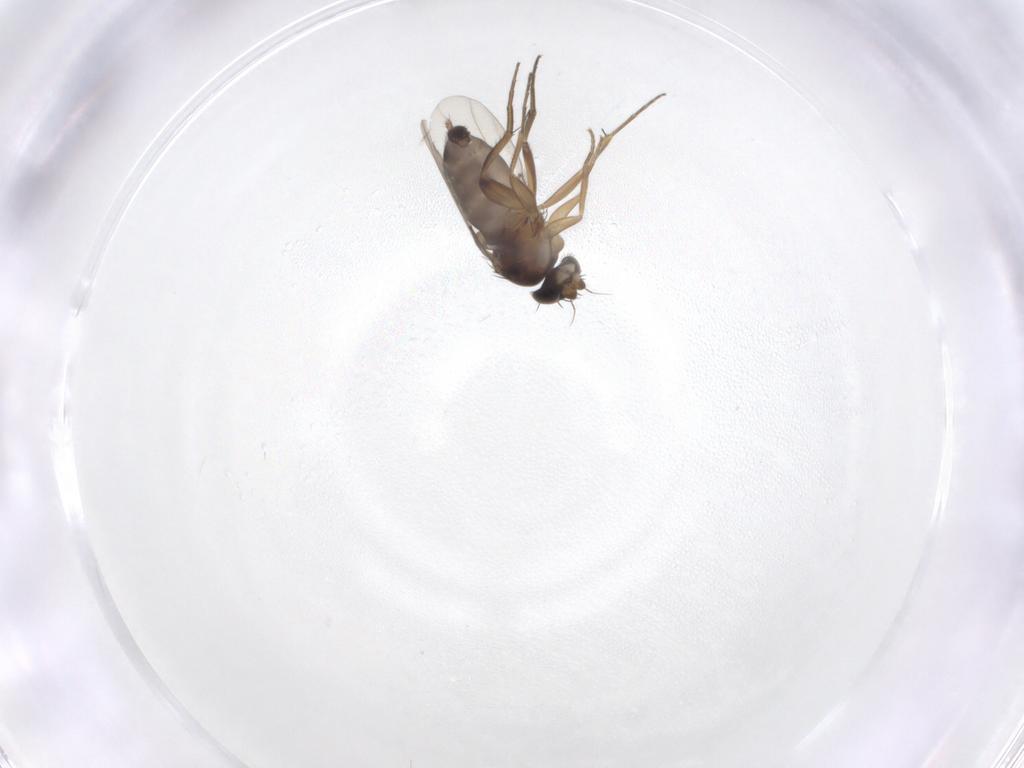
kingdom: Animalia
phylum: Arthropoda
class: Insecta
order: Diptera
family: Phoridae
